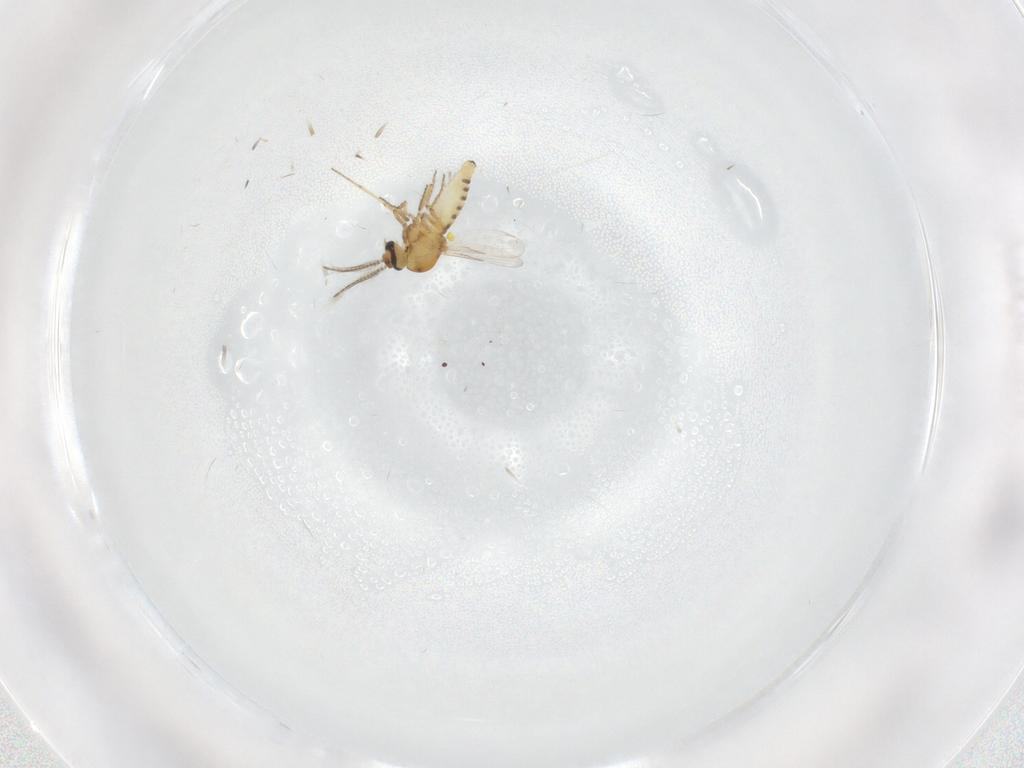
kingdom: Animalia
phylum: Arthropoda
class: Insecta
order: Diptera
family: Ceratopogonidae
